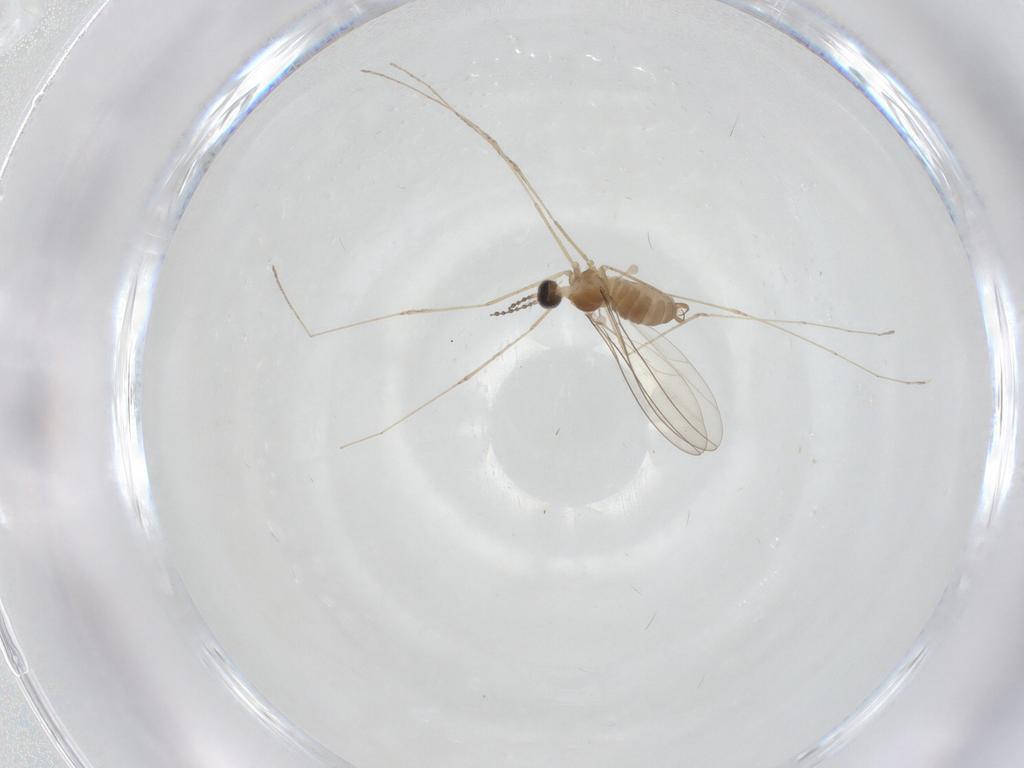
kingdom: Animalia
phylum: Arthropoda
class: Insecta
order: Diptera
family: Cecidomyiidae
